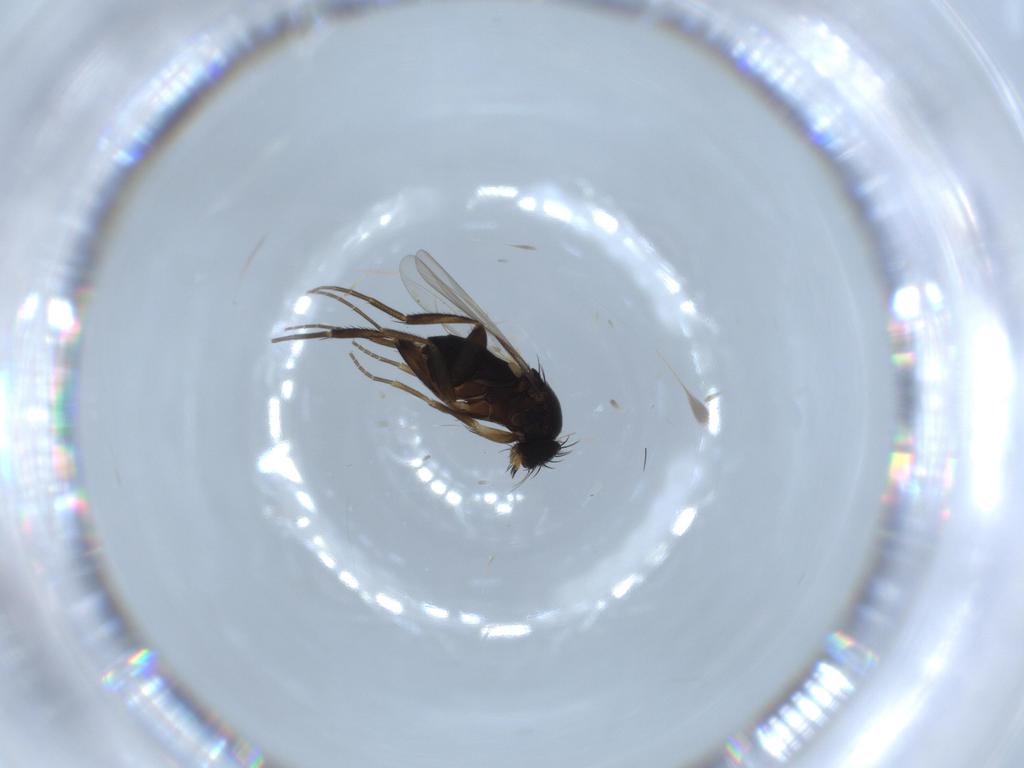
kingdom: Animalia
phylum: Arthropoda
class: Insecta
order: Diptera
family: Phoridae
